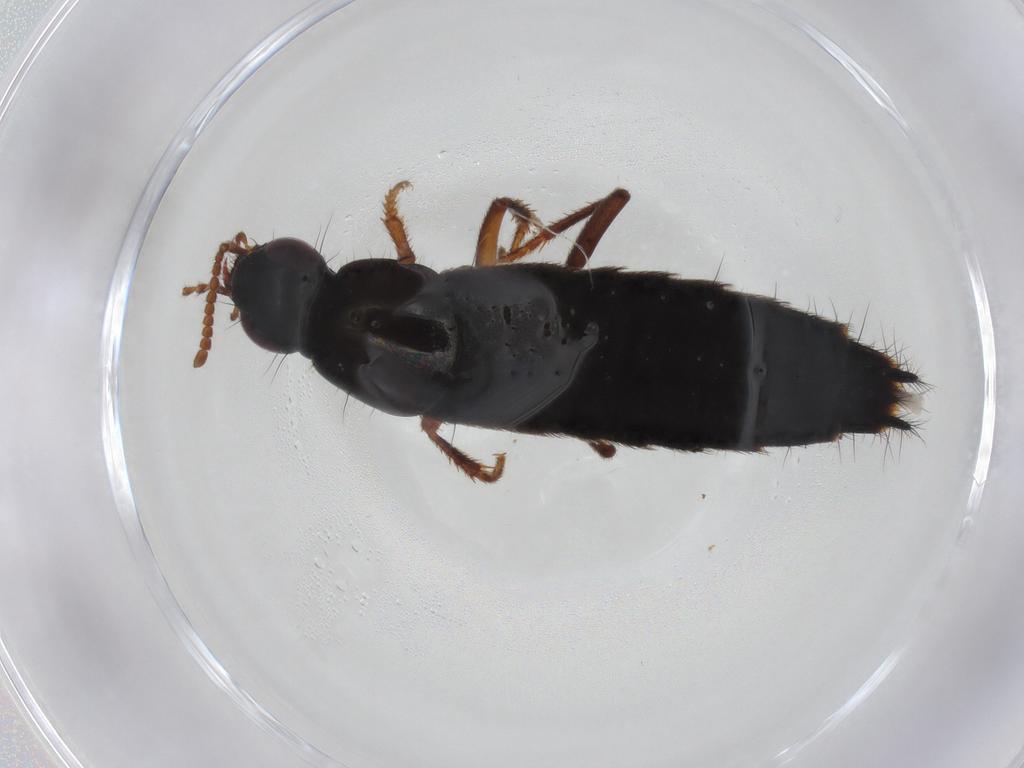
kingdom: Animalia
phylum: Arthropoda
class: Insecta
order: Coleoptera
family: Staphylinidae
